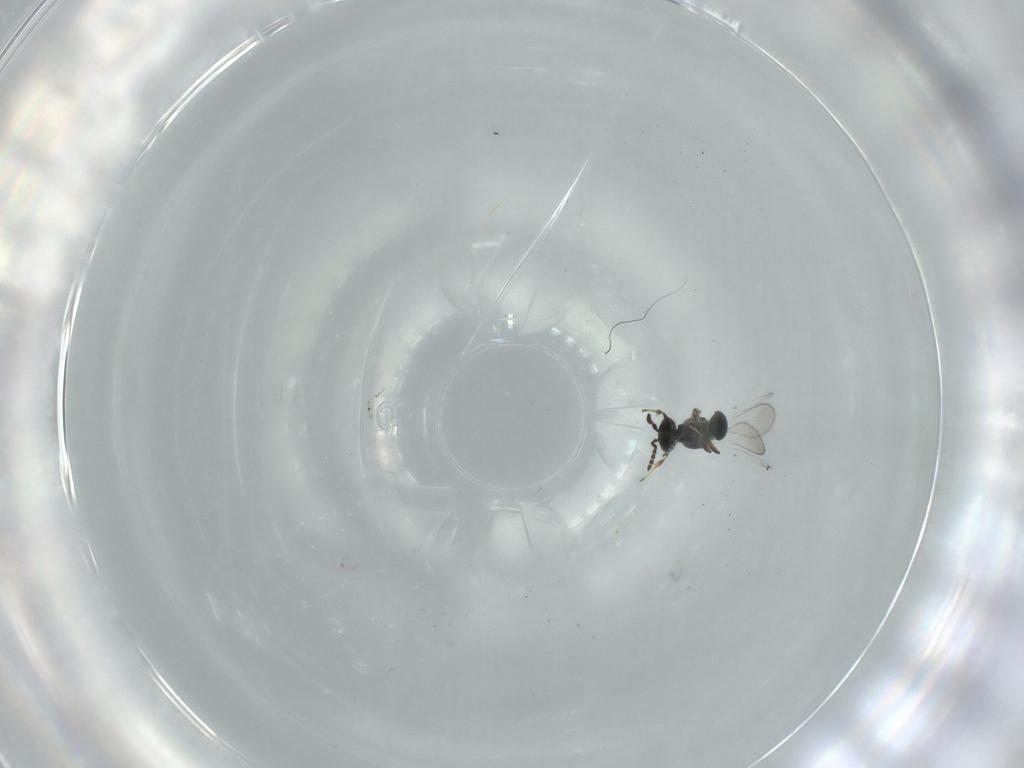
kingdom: Animalia
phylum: Arthropoda
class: Insecta
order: Hymenoptera
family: Platygastridae
